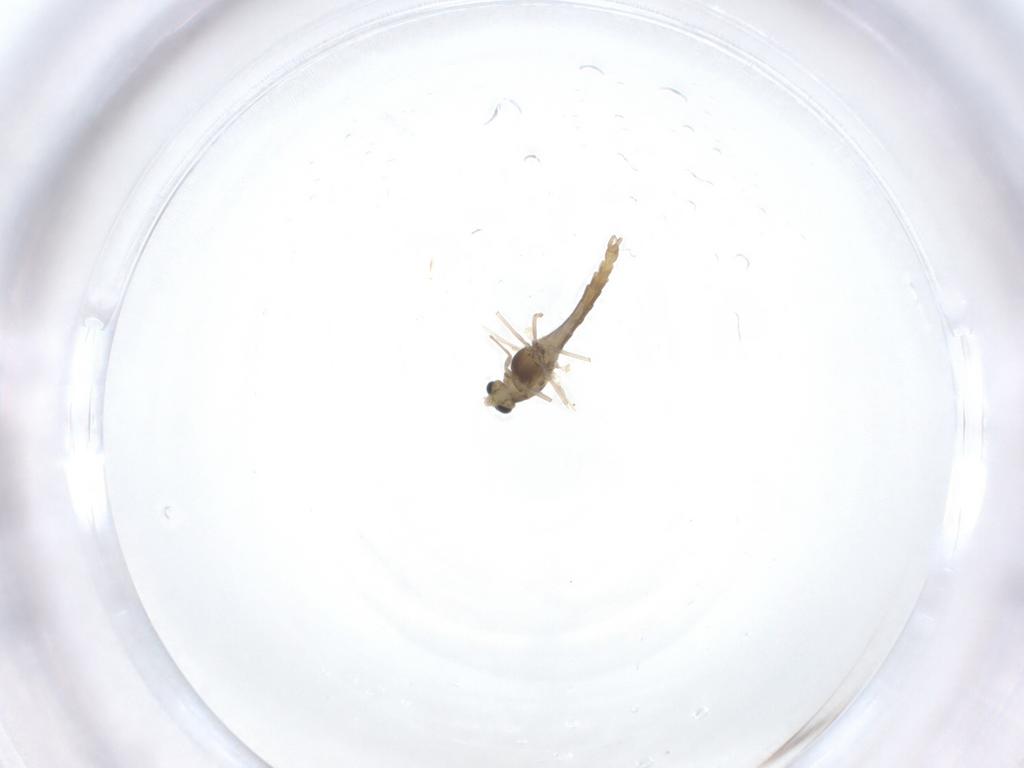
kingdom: Animalia
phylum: Arthropoda
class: Insecta
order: Diptera
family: Chironomidae
